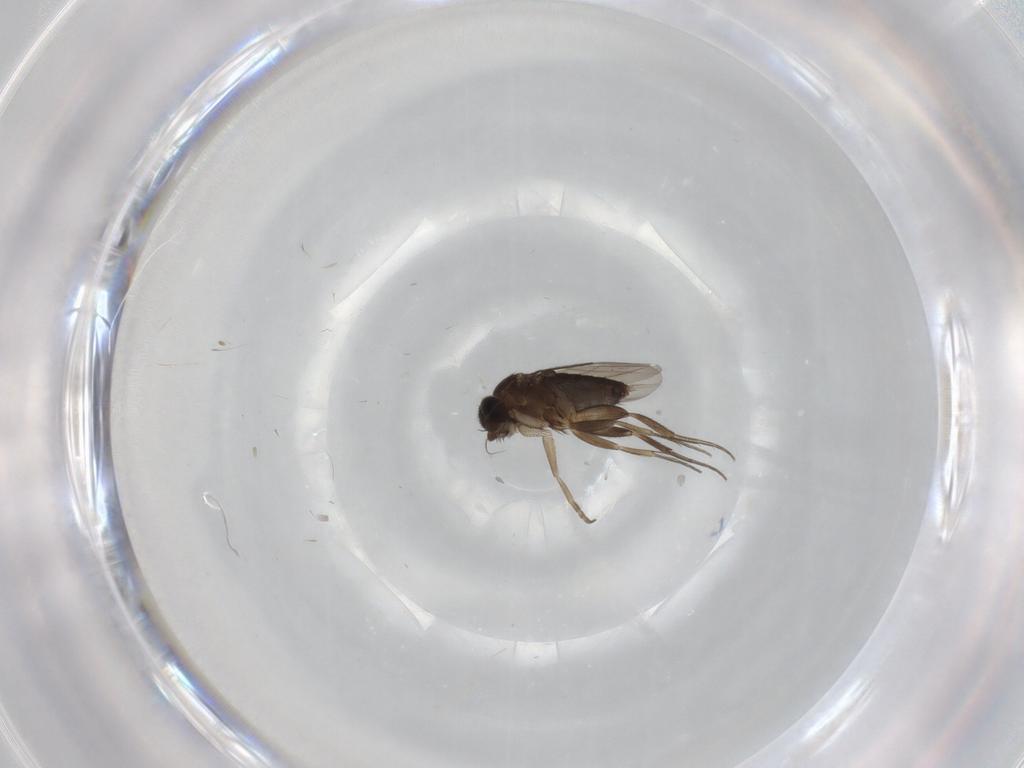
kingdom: Animalia
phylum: Arthropoda
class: Insecta
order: Diptera
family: Phoridae
